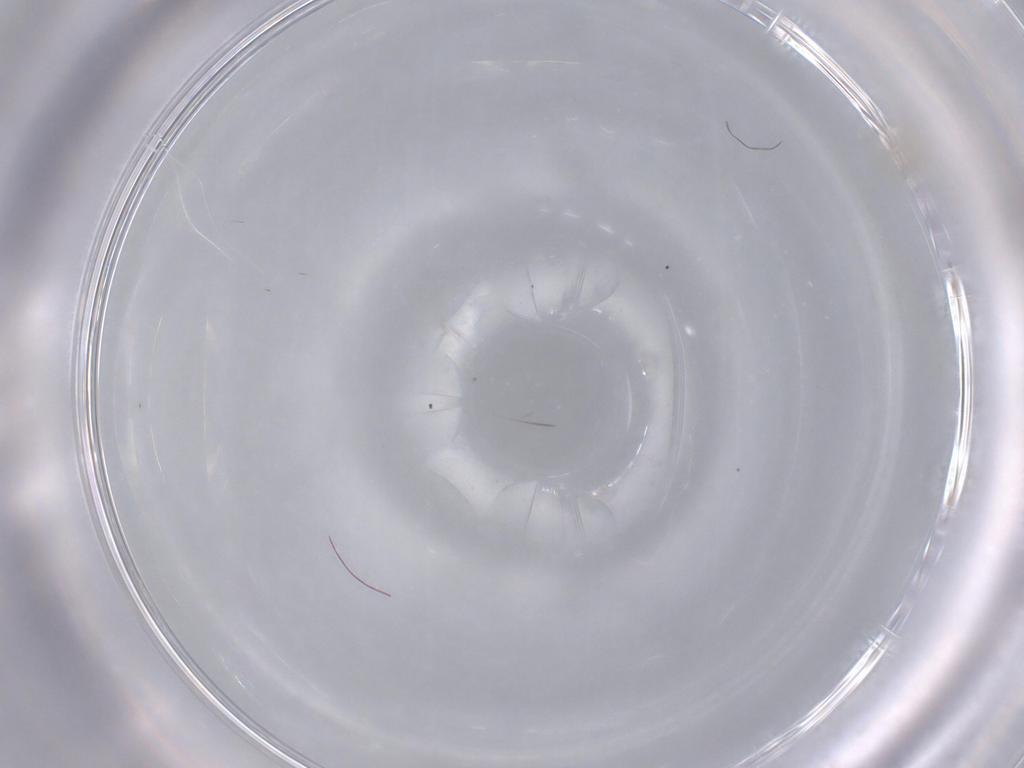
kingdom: Animalia
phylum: Arthropoda
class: Insecta
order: Hymenoptera
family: Mymaridae
